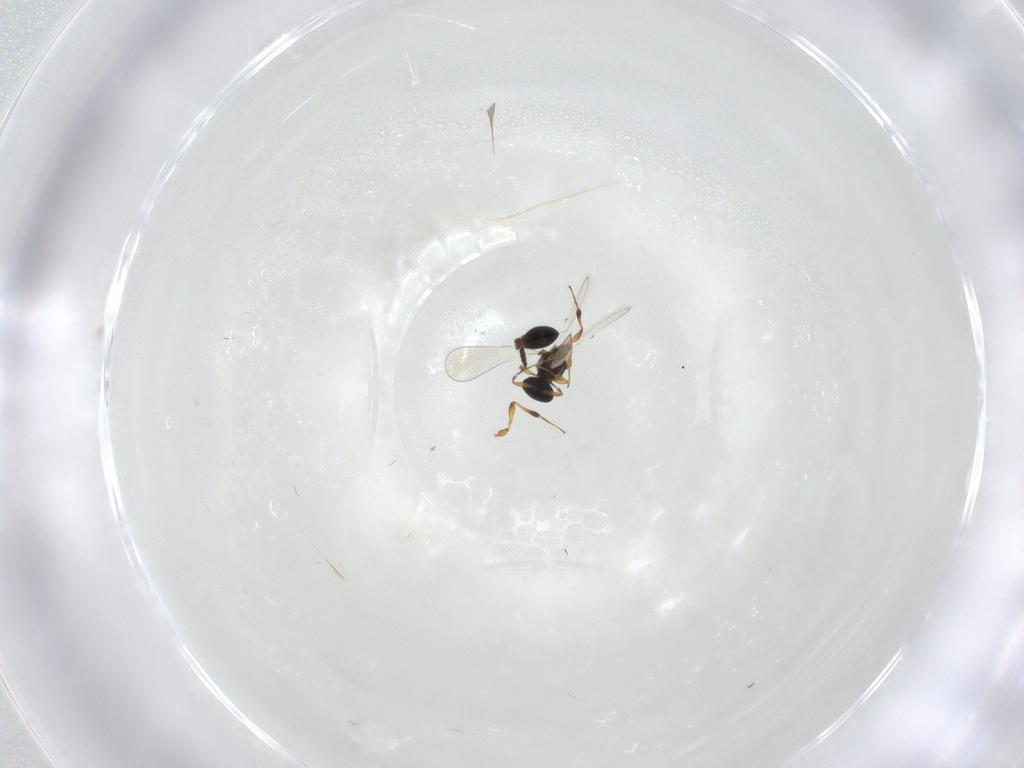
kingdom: Animalia
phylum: Arthropoda
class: Insecta
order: Hymenoptera
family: Platygastridae
